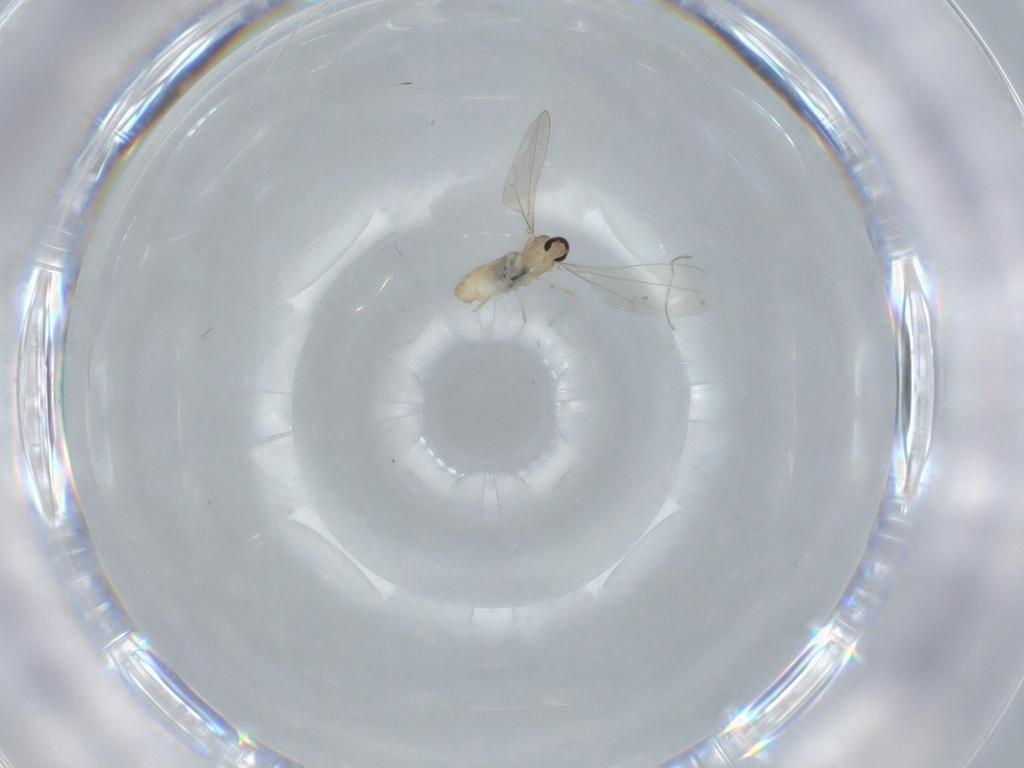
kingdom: Animalia
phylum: Arthropoda
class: Insecta
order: Diptera
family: Cecidomyiidae
